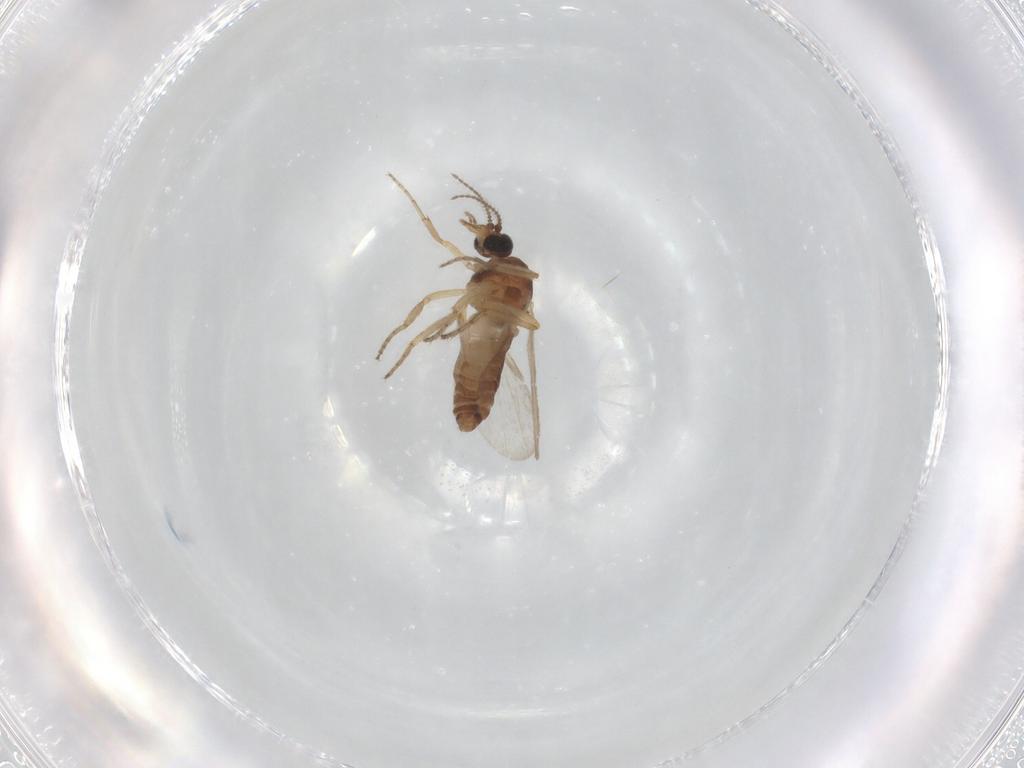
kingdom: Animalia
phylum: Arthropoda
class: Insecta
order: Diptera
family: Ceratopogonidae
